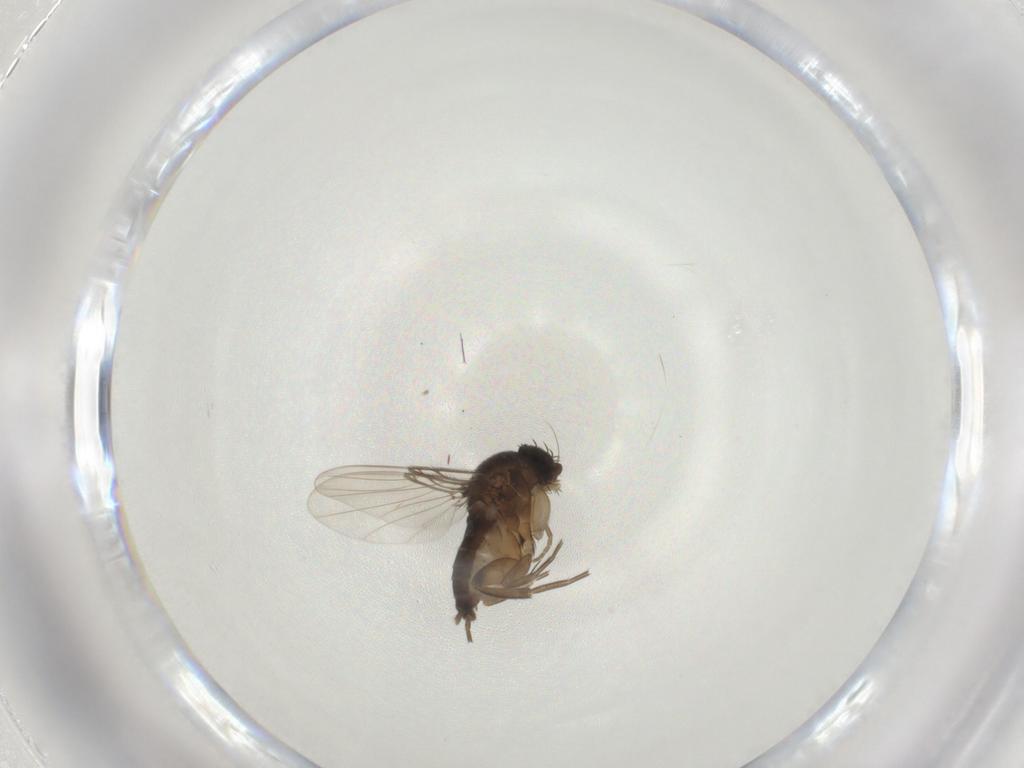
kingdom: Animalia
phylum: Arthropoda
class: Insecta
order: Diptera
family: Phoridae
